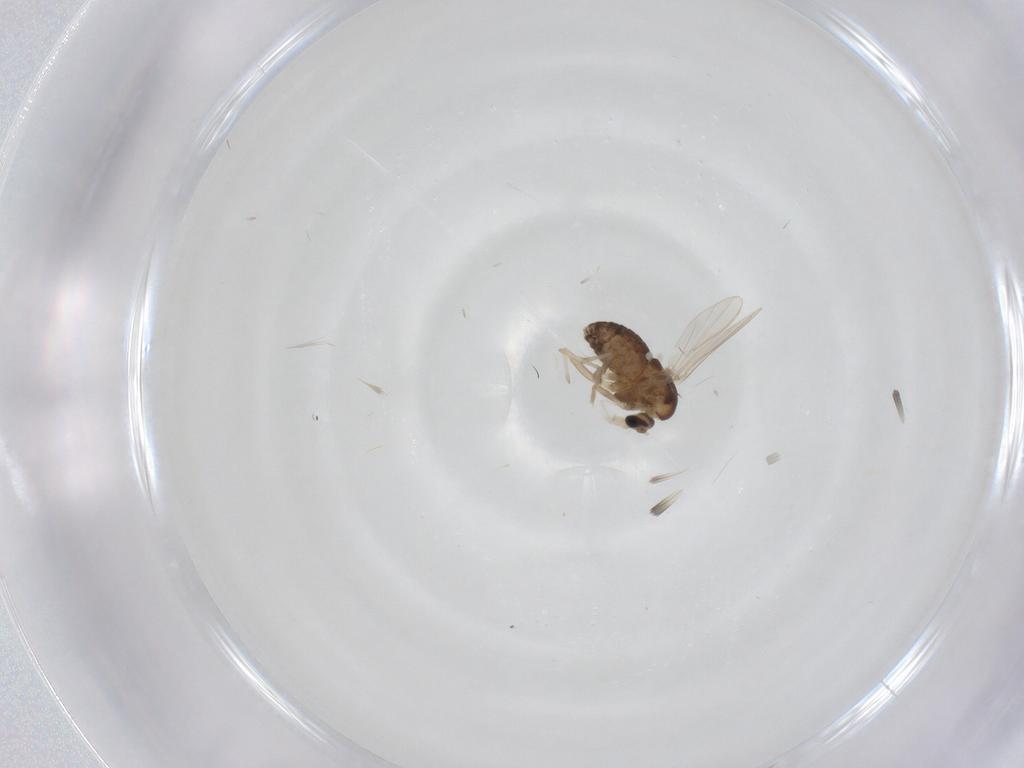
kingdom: Animalia
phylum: Arthropoda
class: Insecta
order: Diptera
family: Chironomidae
